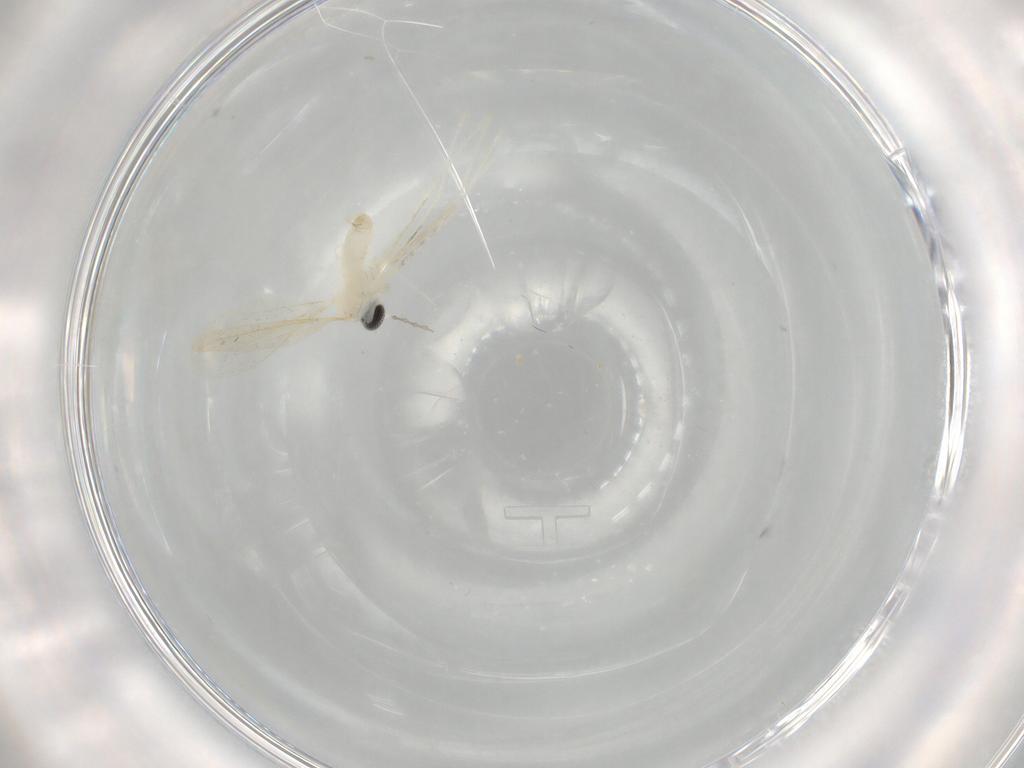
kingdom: Animalia
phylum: Arthropoda
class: Insecta
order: Diptera
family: Cecidomyiidae
